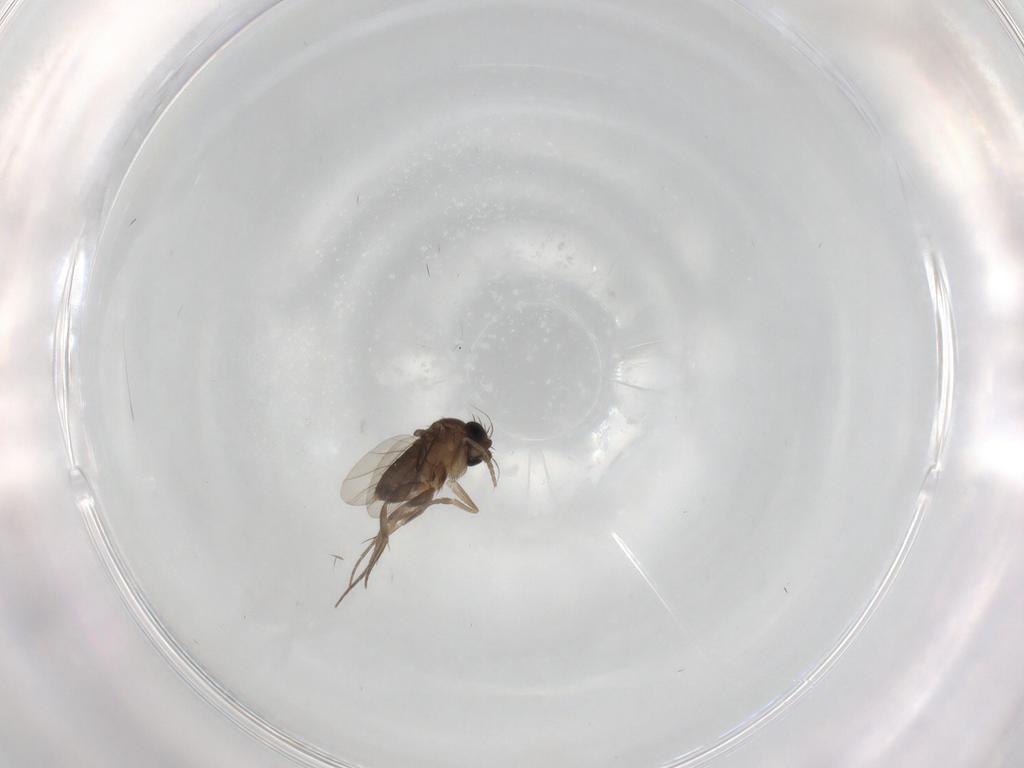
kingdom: Animalia
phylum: Arthropoda
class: Insecta
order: Diptera
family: Phoridae
